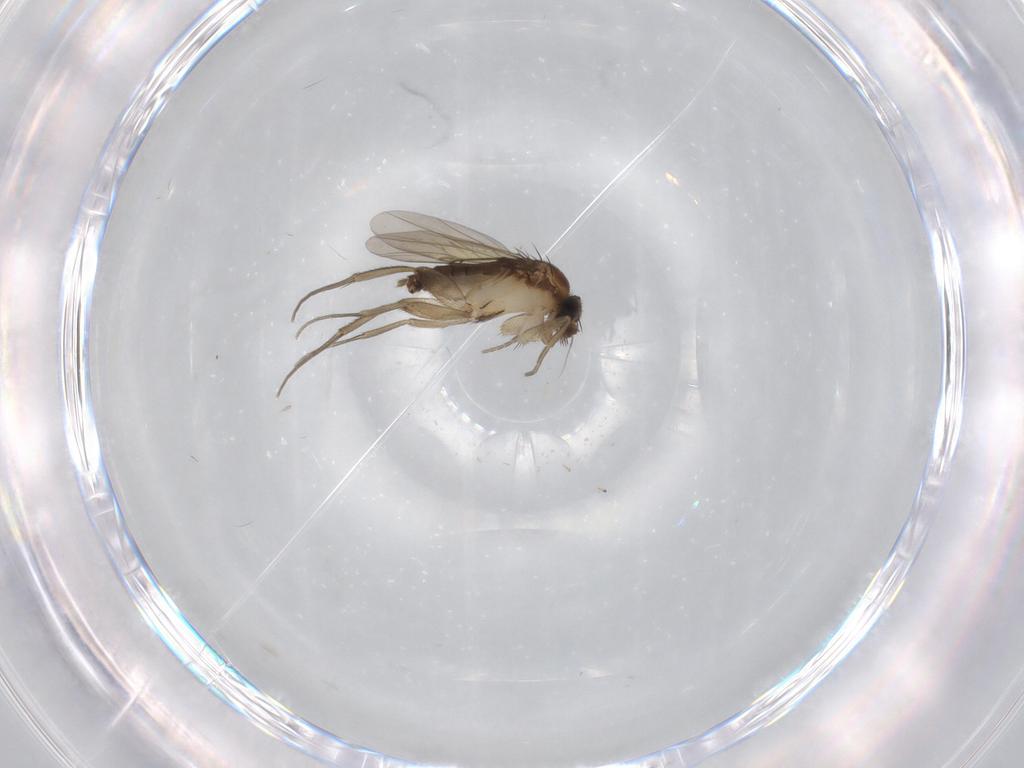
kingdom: Animalia
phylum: Arthropoda
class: Insecta
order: Diptera
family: Phoridae
